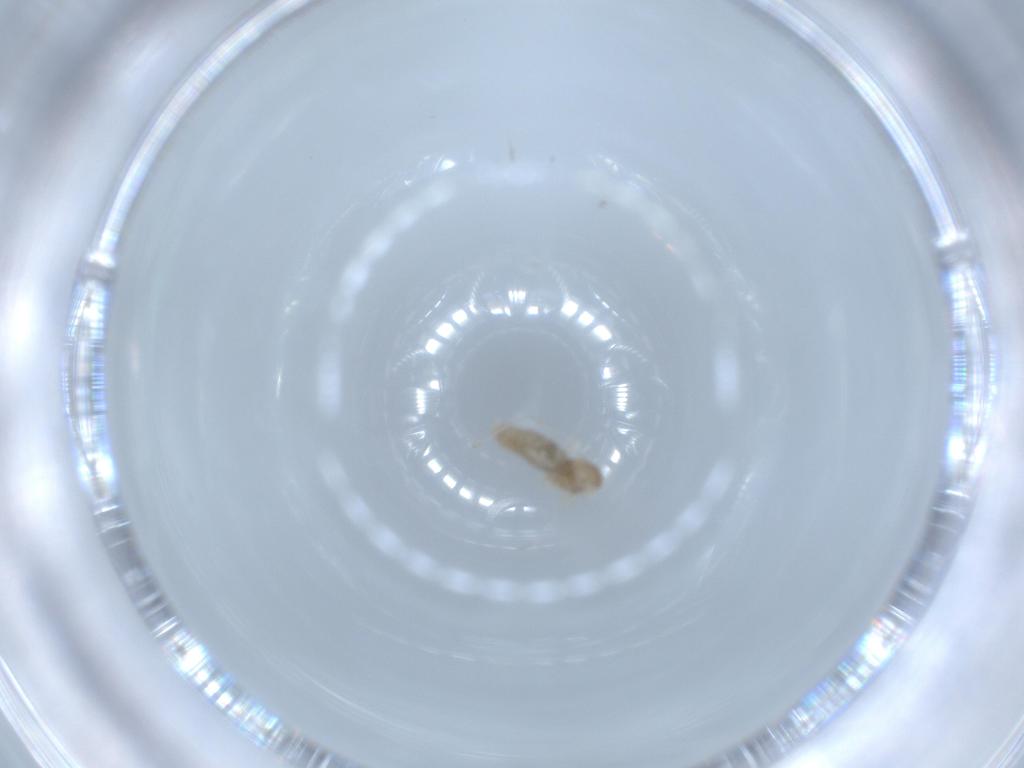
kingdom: Animalia
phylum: Arthropoda
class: Insecta
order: Diptera
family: Cecidomyiidae
